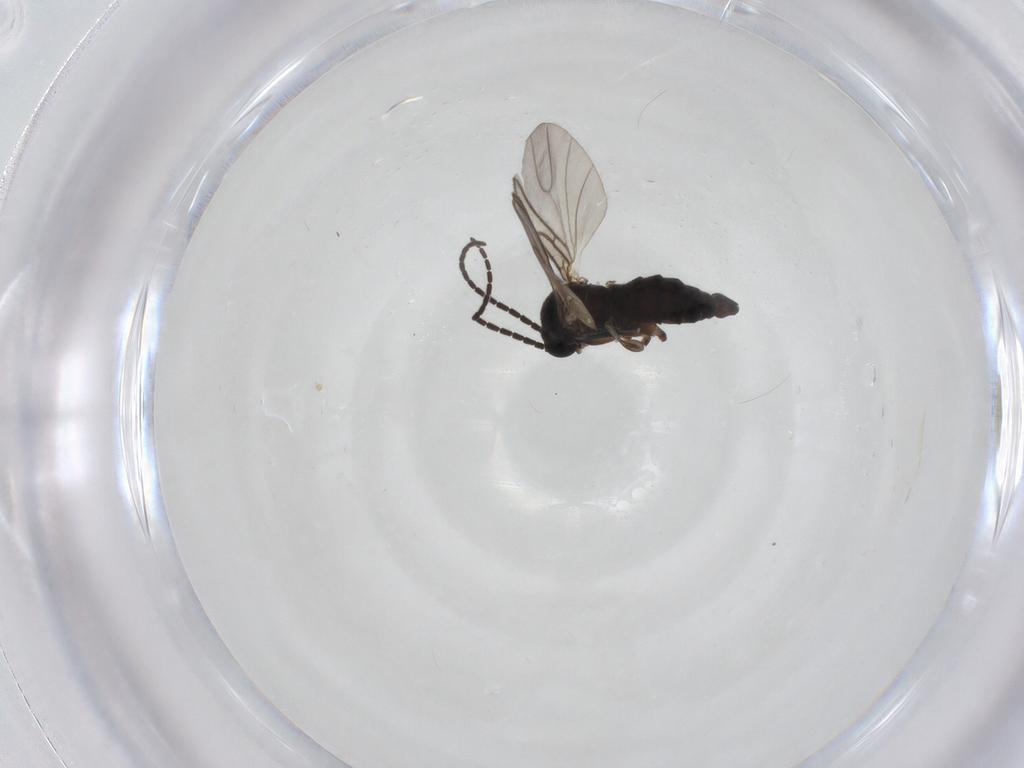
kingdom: Animalia
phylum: Arthropoda
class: Insecta
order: Diptera
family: Sciaridae
